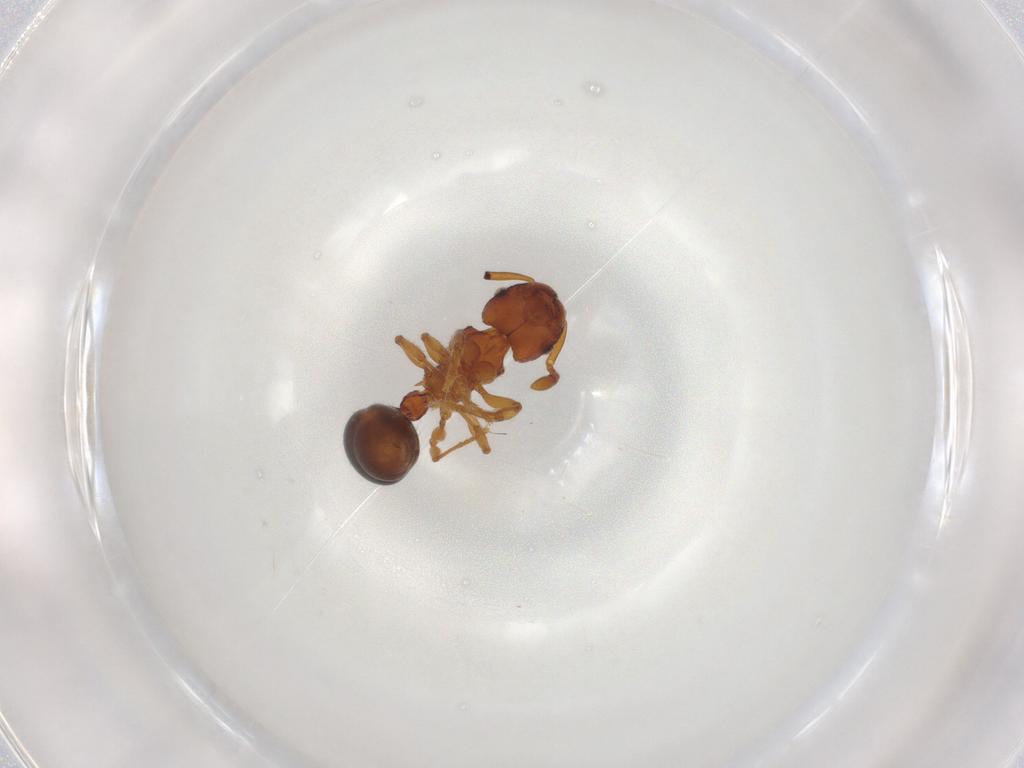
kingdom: Animalia
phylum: Arthropoda
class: Insecta
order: Hymenoptera
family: Formicidae
